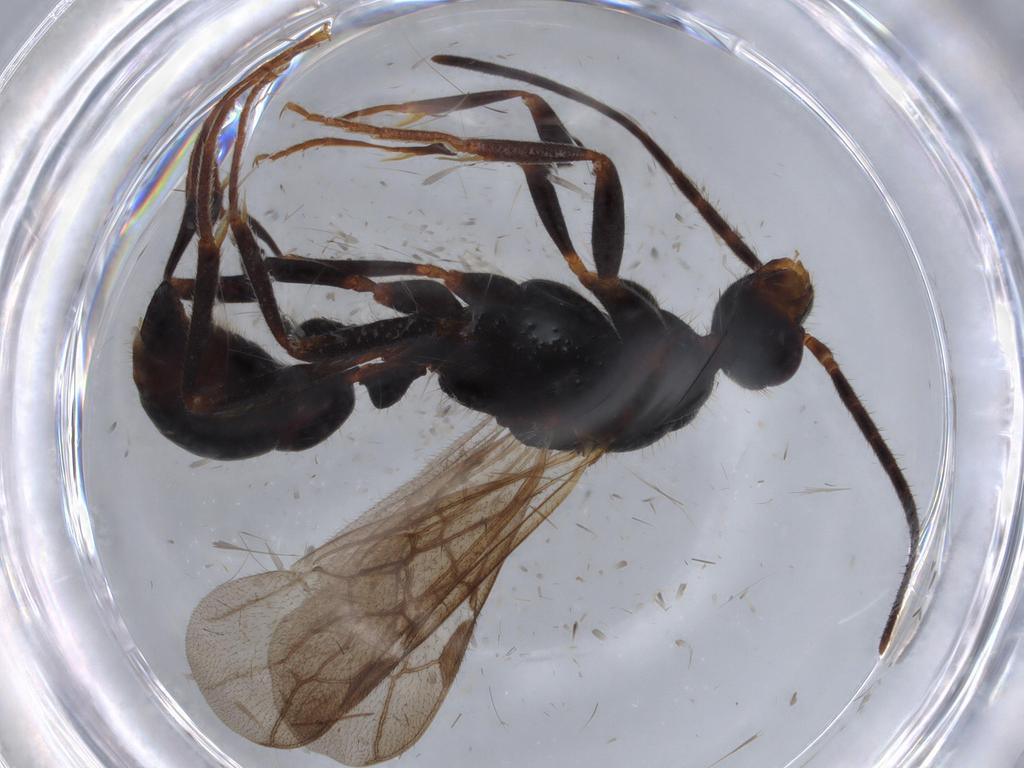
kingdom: Animalia
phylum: Arthropoda
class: Insecta
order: Hymenoptera
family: Formicidae
